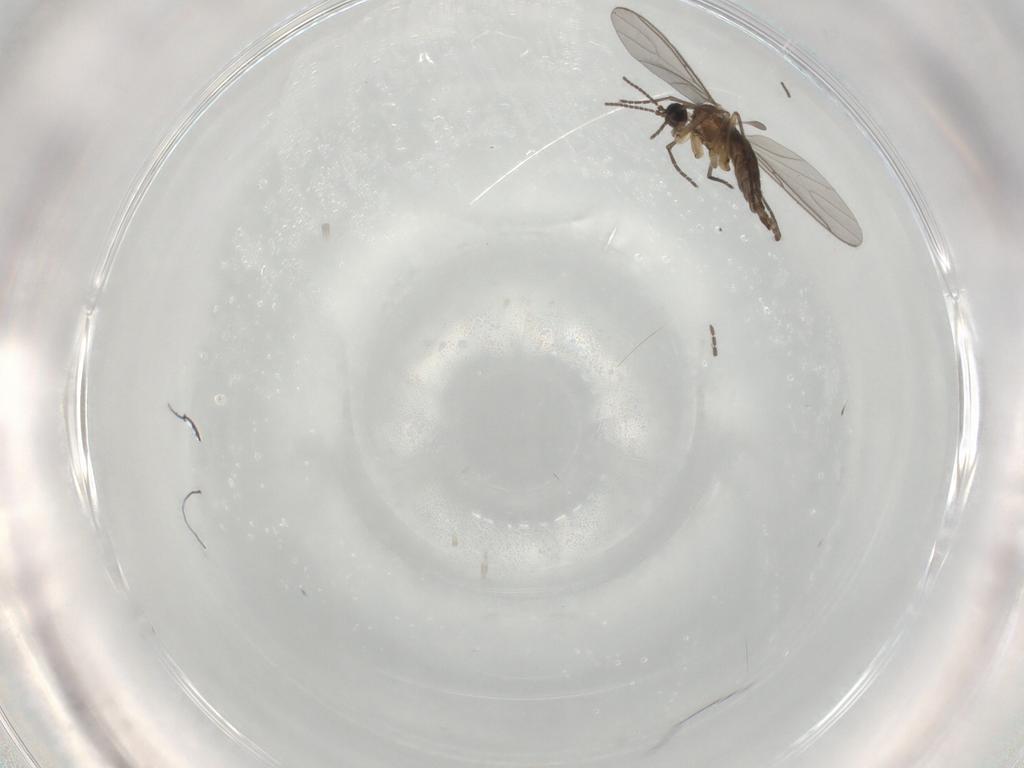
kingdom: Animalia
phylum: Arthropoda
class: Insecta
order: Diptera
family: Sciaridae
